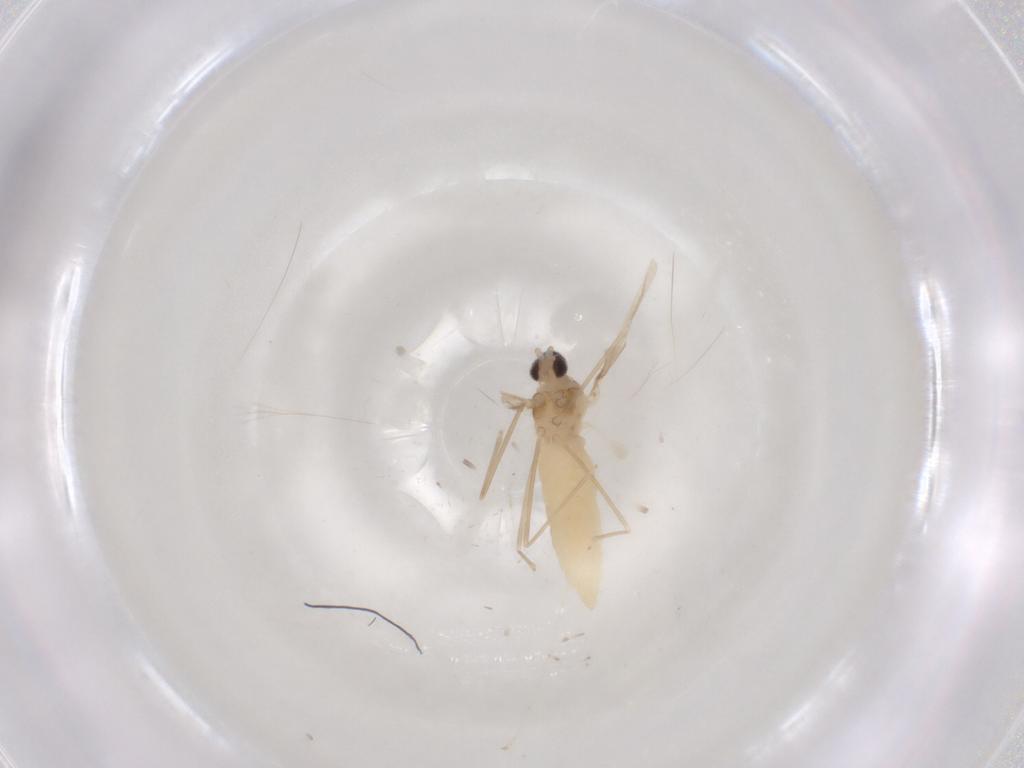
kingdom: Animalia
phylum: Arthropoda
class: Insecta
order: Diptera
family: Cecidomyiidae
